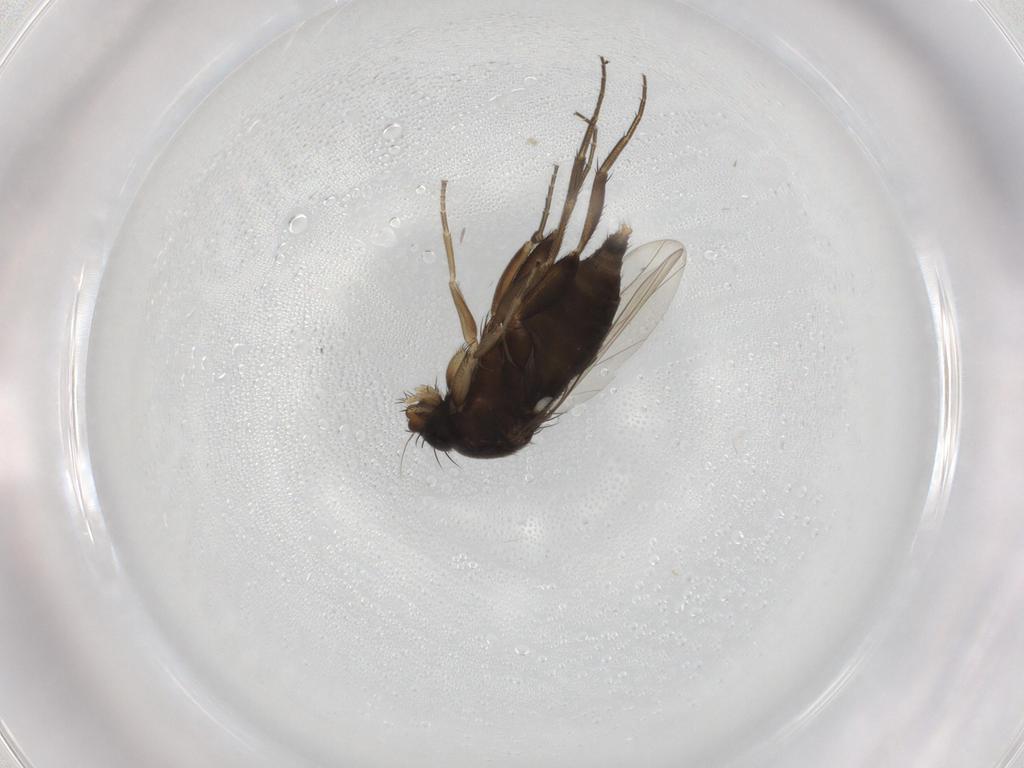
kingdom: Animalia
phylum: Arthropoda
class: Insecta
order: Diptera
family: Phoridae
